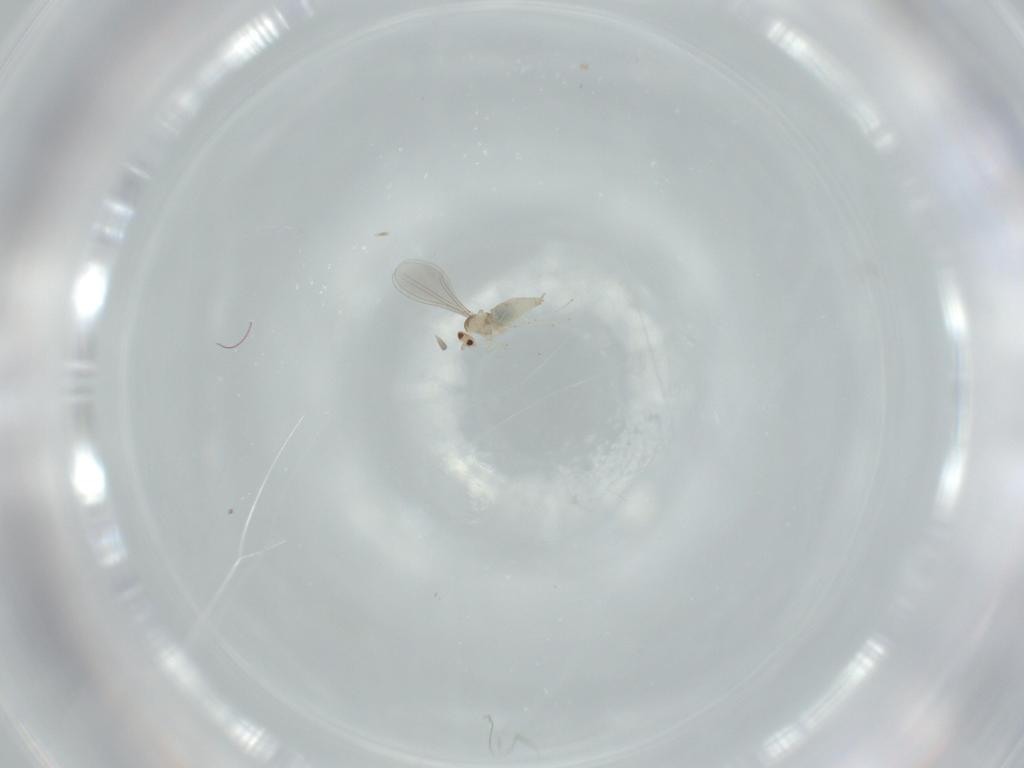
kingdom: Animalia
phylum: Arthropoda
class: Insecta
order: Diptera
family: Cecidomyiidae
